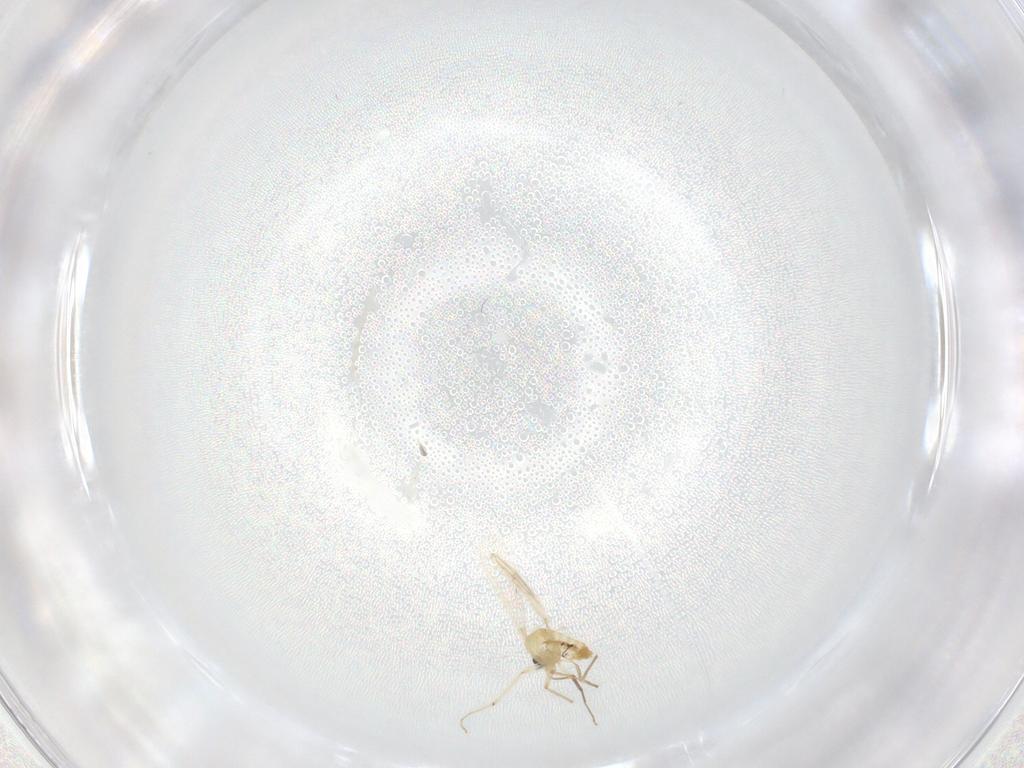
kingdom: Animalia
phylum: Arthropoda
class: Insecta
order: Diptera
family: Chironomidae
